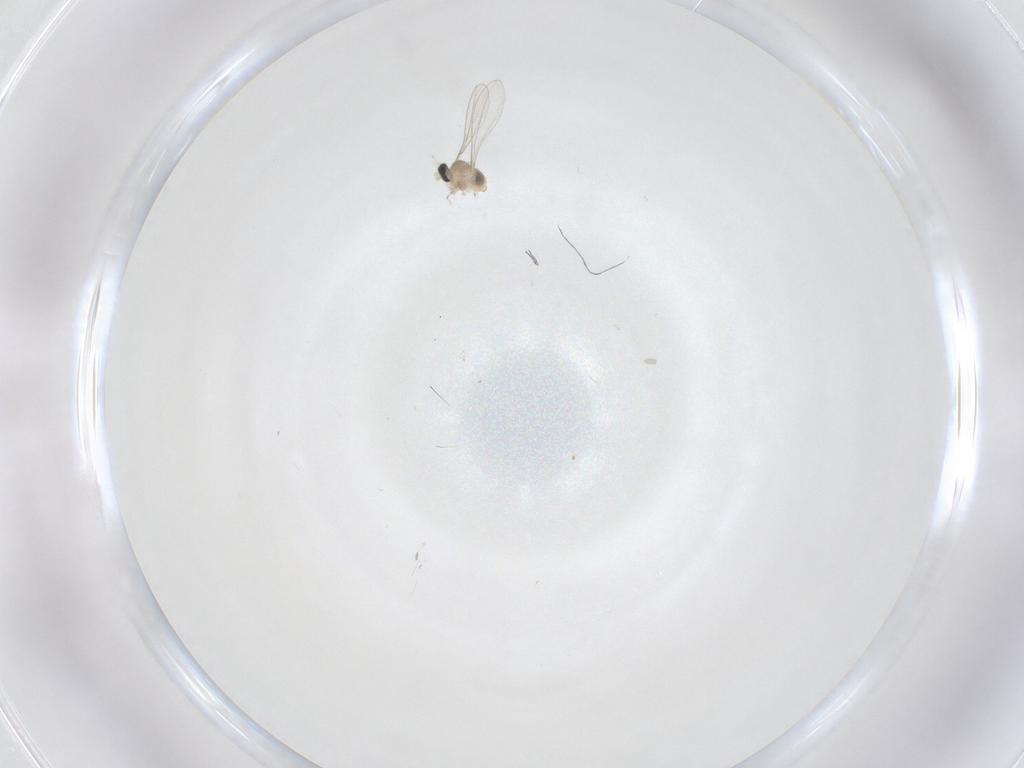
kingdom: Animalia
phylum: Arthropoda
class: Insecta
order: Diptera
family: Cecidomyiidae
